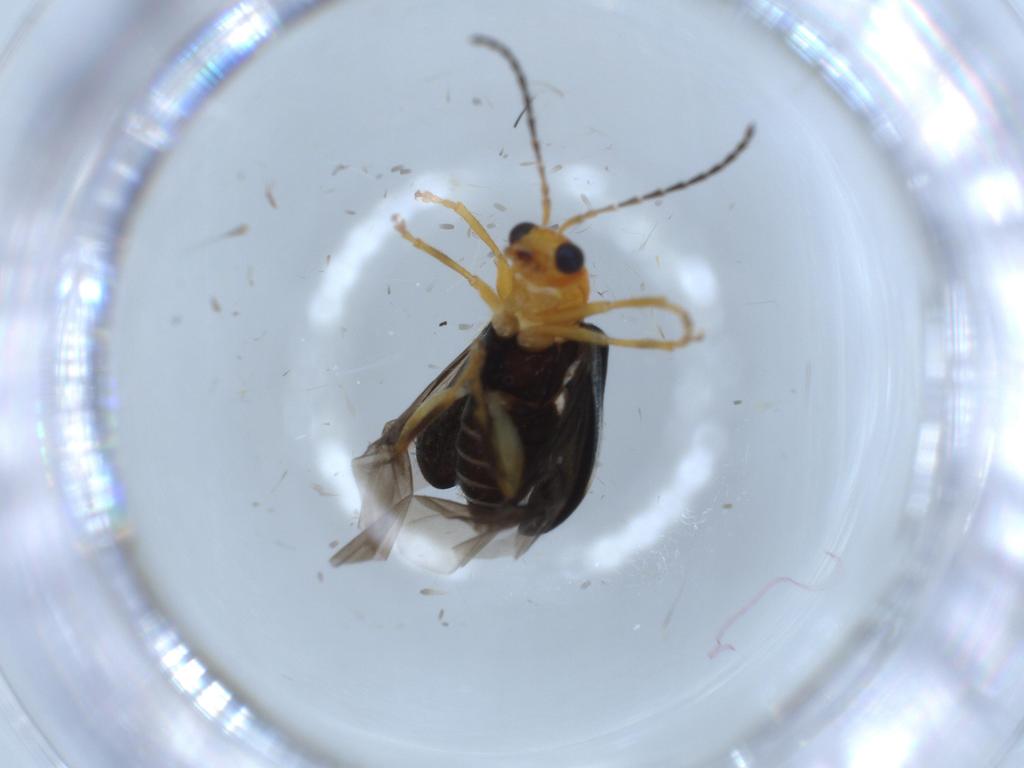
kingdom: Animalia
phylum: Arthropoda
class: Insecta
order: Coleoptera
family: Chrysomelidae
